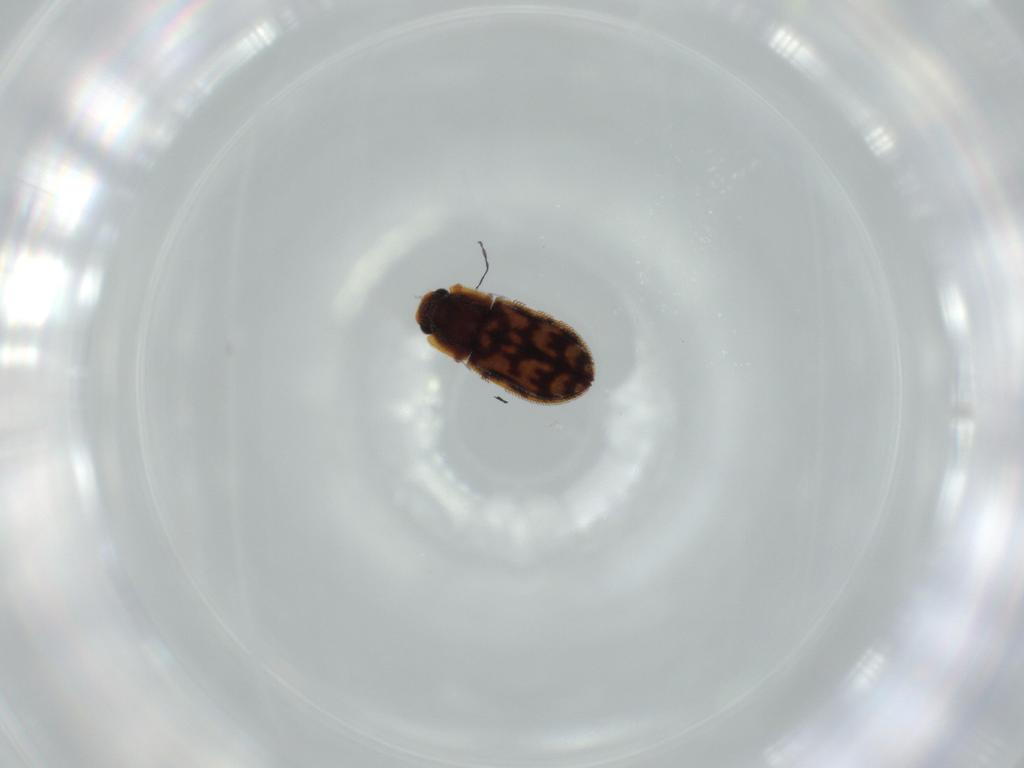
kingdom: Animalia
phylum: Arthropoda
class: Insecta
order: Coleoptera
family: Zopheridae
